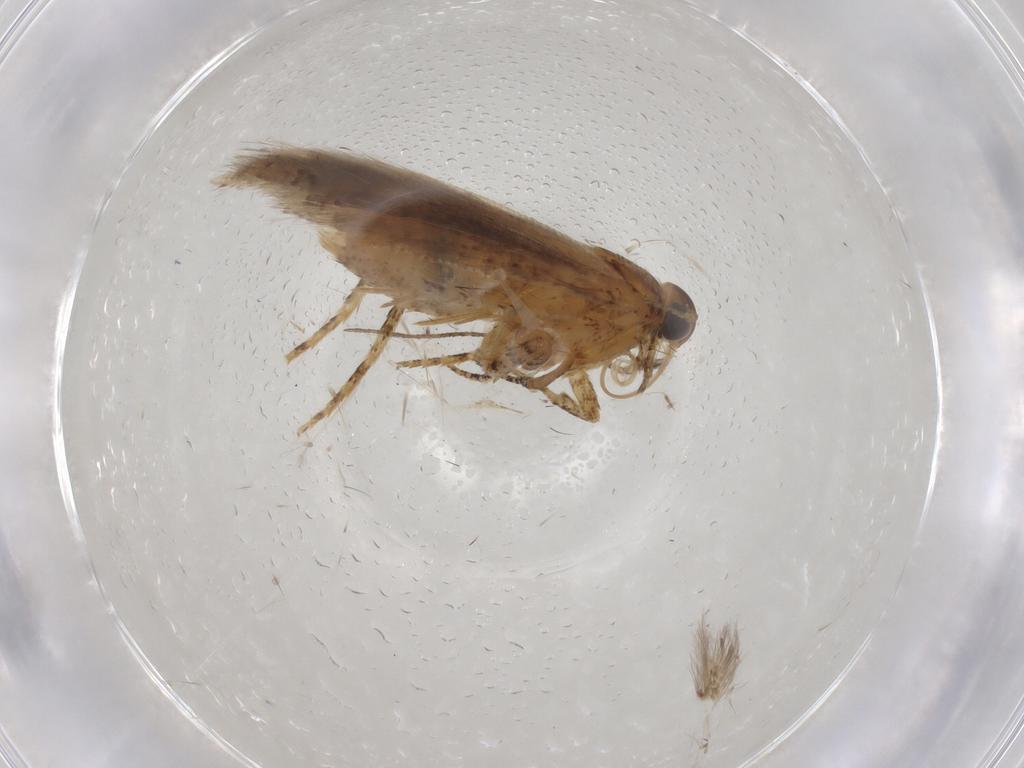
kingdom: Animalia
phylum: Arthropoda
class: Insecta
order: Lepidoptera
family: Gelechiidae
